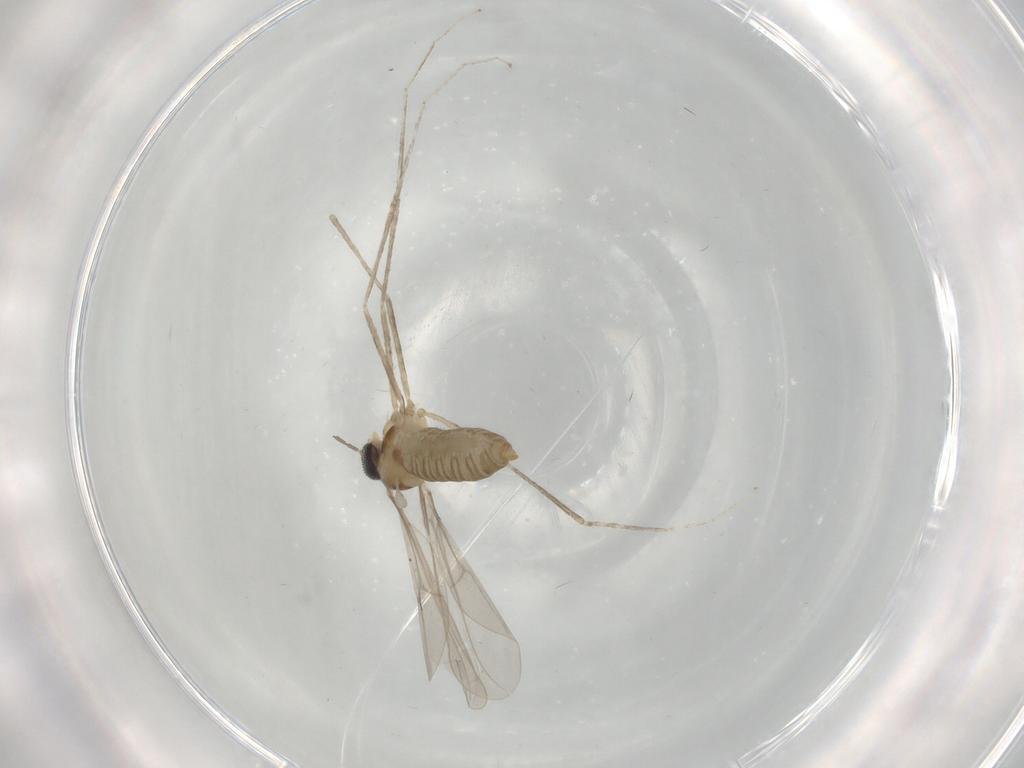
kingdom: Animalia
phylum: Arthropoda
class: Insecta
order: Diptera
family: Cecidomyiidae
